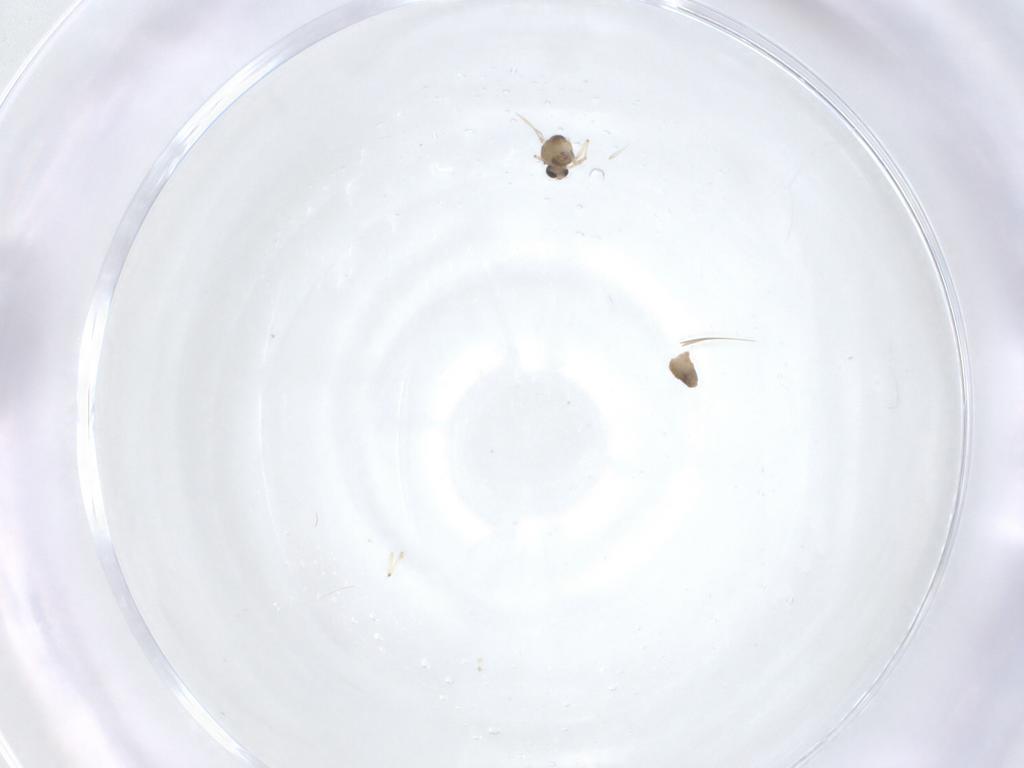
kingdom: Animalia
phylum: Arthropoda
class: Insecta
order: Diptera
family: Chironomidae
